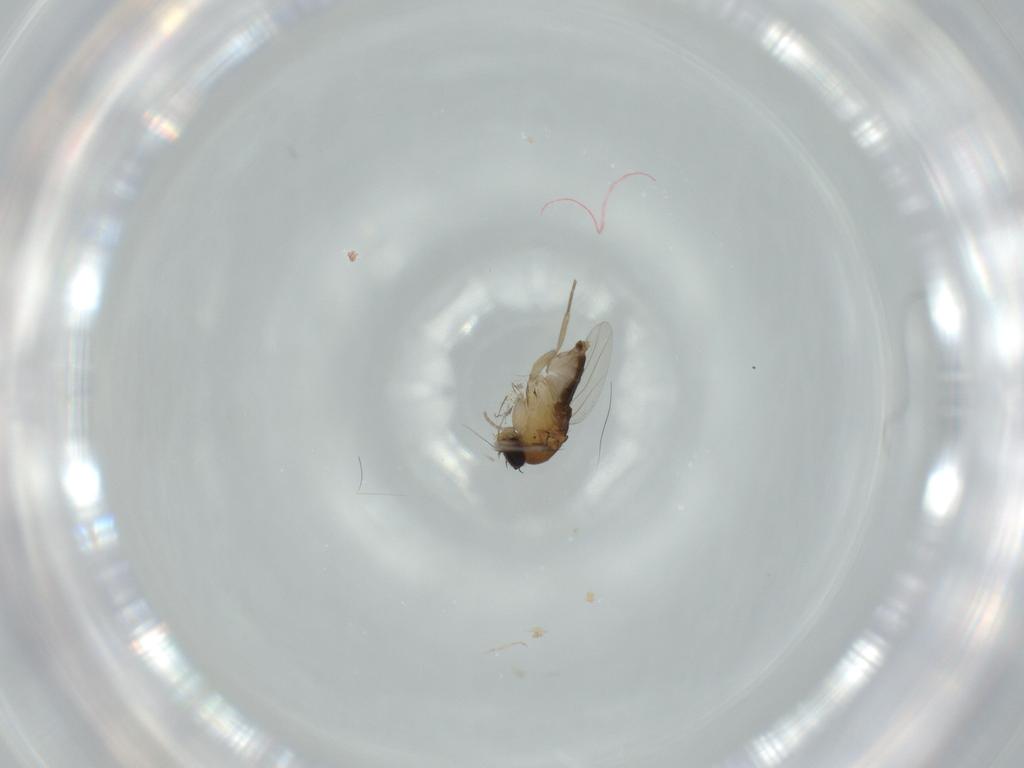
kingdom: Animalia
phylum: Arthropoda
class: Insecta
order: Diptera
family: Phoridae
